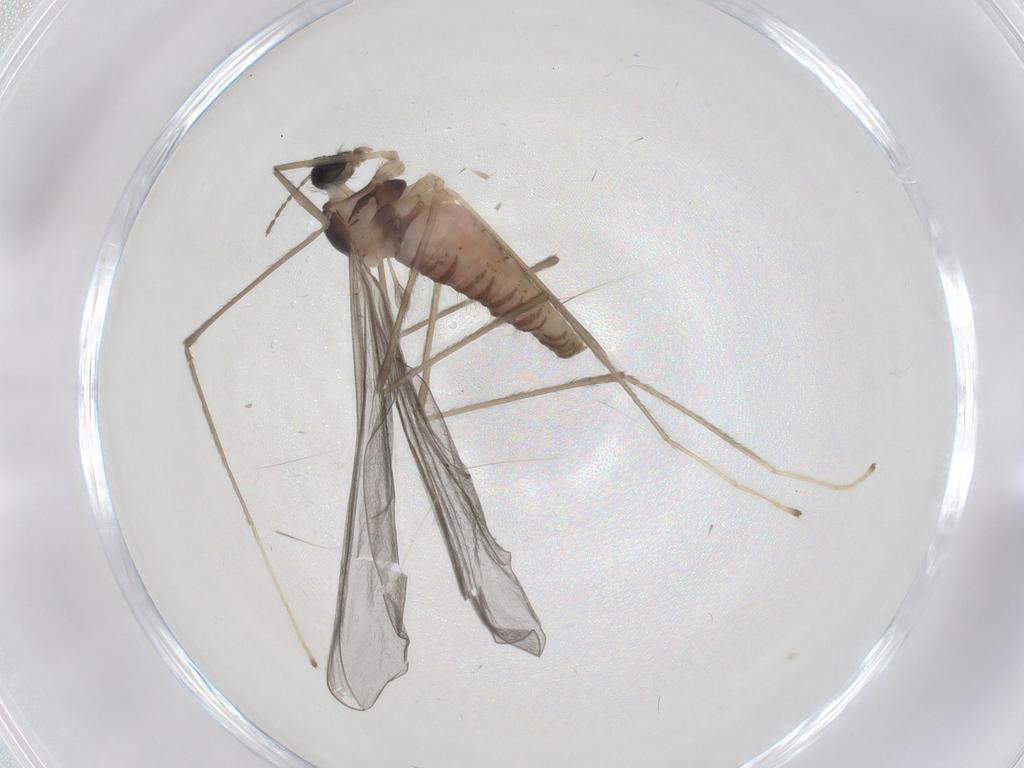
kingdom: Animalia
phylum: Arthropoda
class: Insecta
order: Diptera
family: Cecidomyiidae
